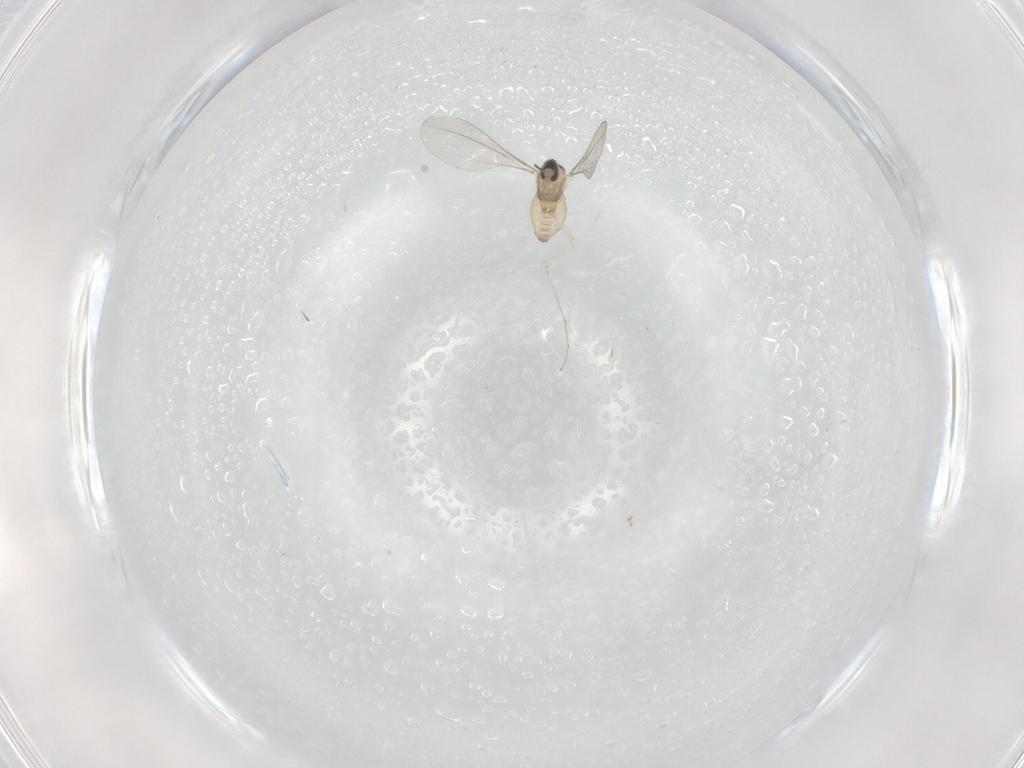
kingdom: Animalia
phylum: Arthropoda
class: Insecta
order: Diptera
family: Cecidomyiidae
